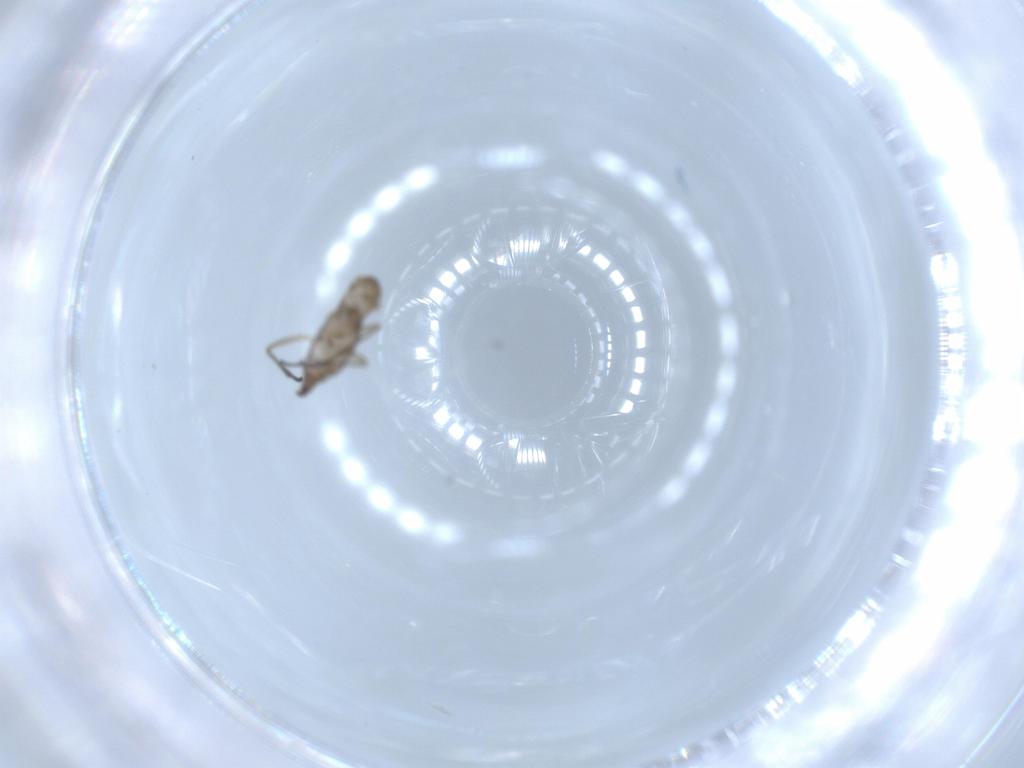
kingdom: Animalia
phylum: Arthropoda
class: Insecta
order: Diptera
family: Sciaridae
